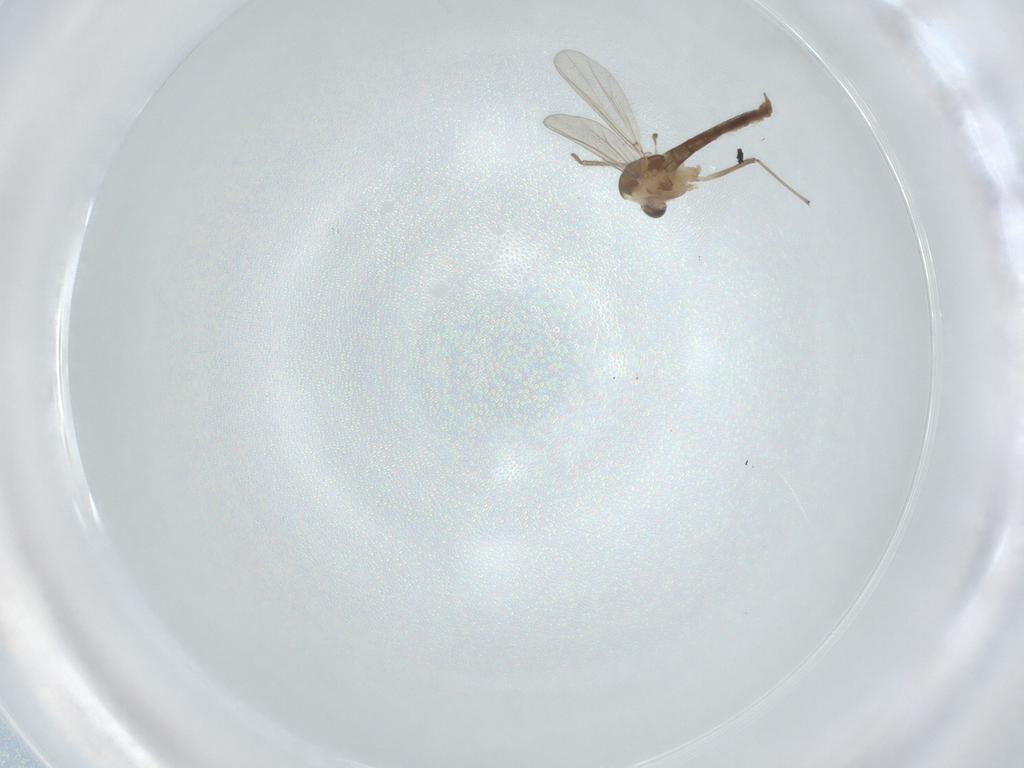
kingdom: Animalia
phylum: Arthropoda
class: Insecta
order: Diptera
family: Chironomidae
